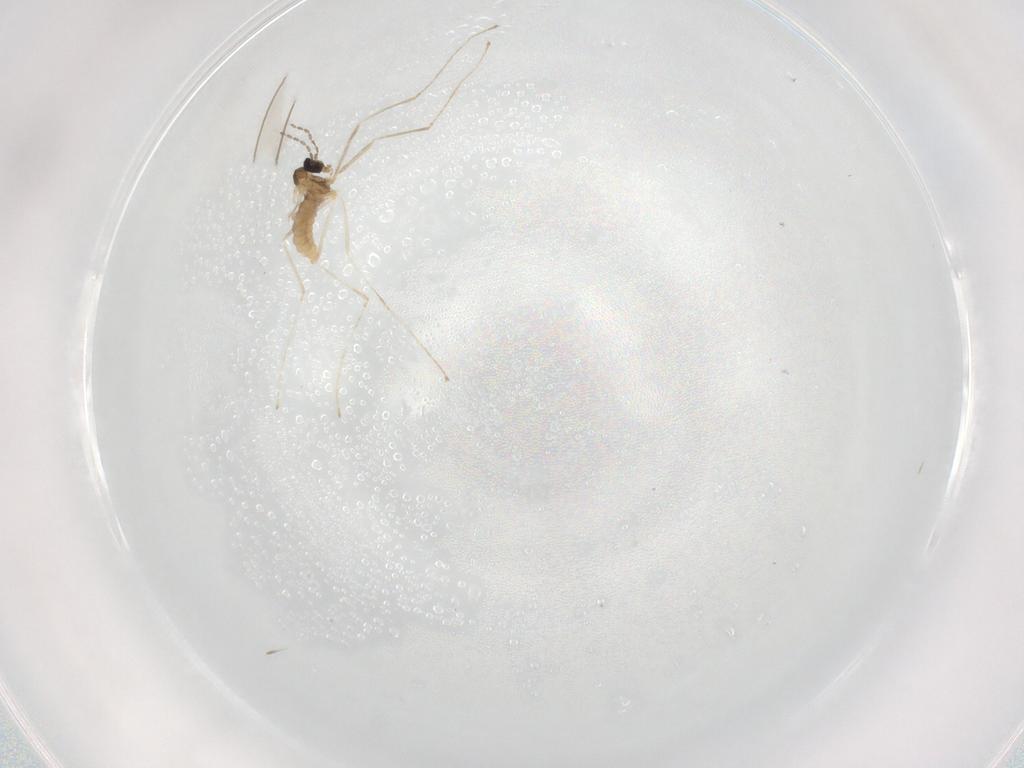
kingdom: Animalia
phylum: Arthropoda
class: Insecta
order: Diptera
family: Cecidomyiidae
